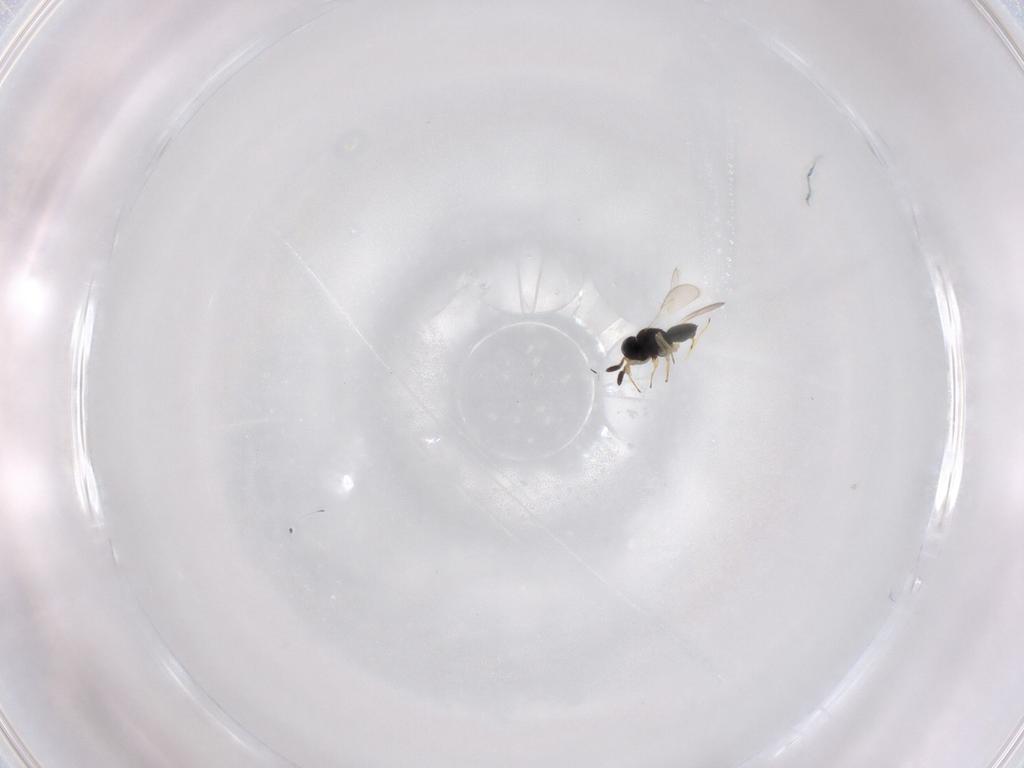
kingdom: Animalia
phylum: Arthropoda
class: Insecta
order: Hymenoptera
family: Scelionidae
